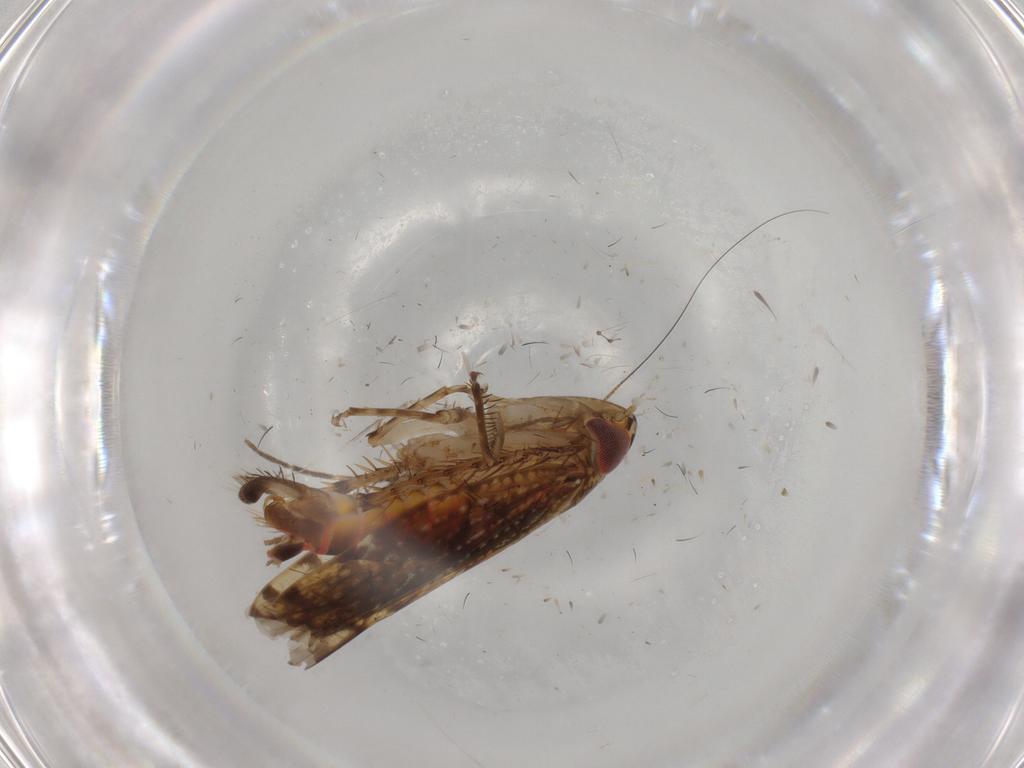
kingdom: Animalia
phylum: Arthropoda
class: Insecta
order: Hemiptera
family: Cicadellidae
